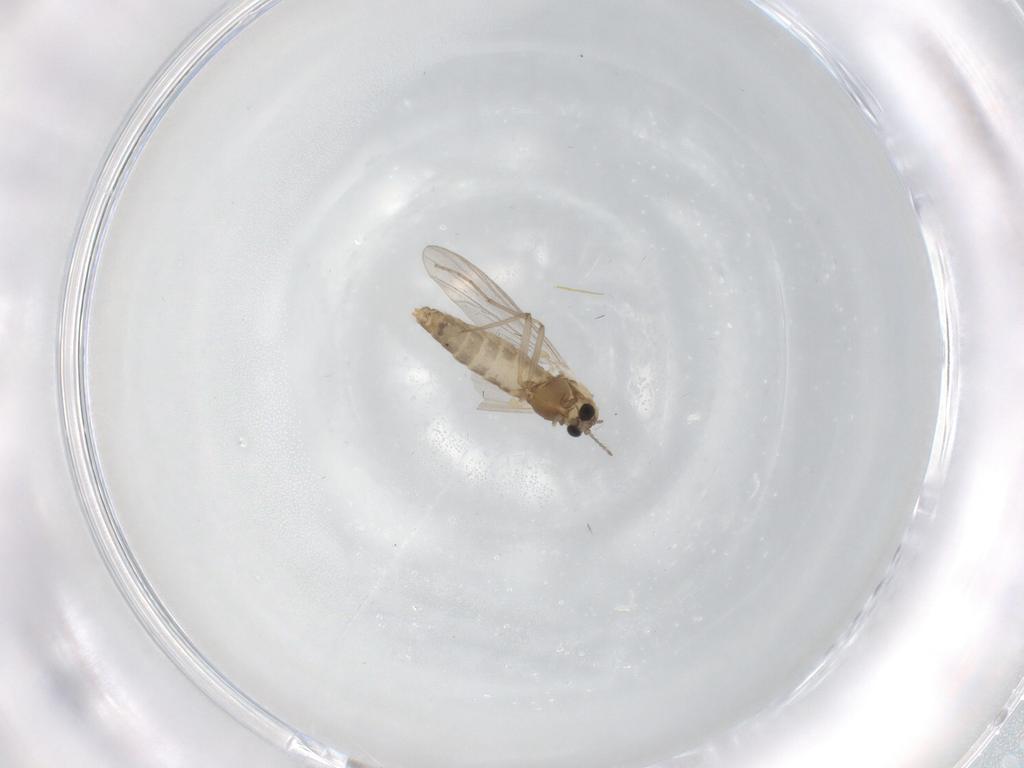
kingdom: Animalia
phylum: Arthropoda
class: Insecta
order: Diptera
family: Chironomidae
